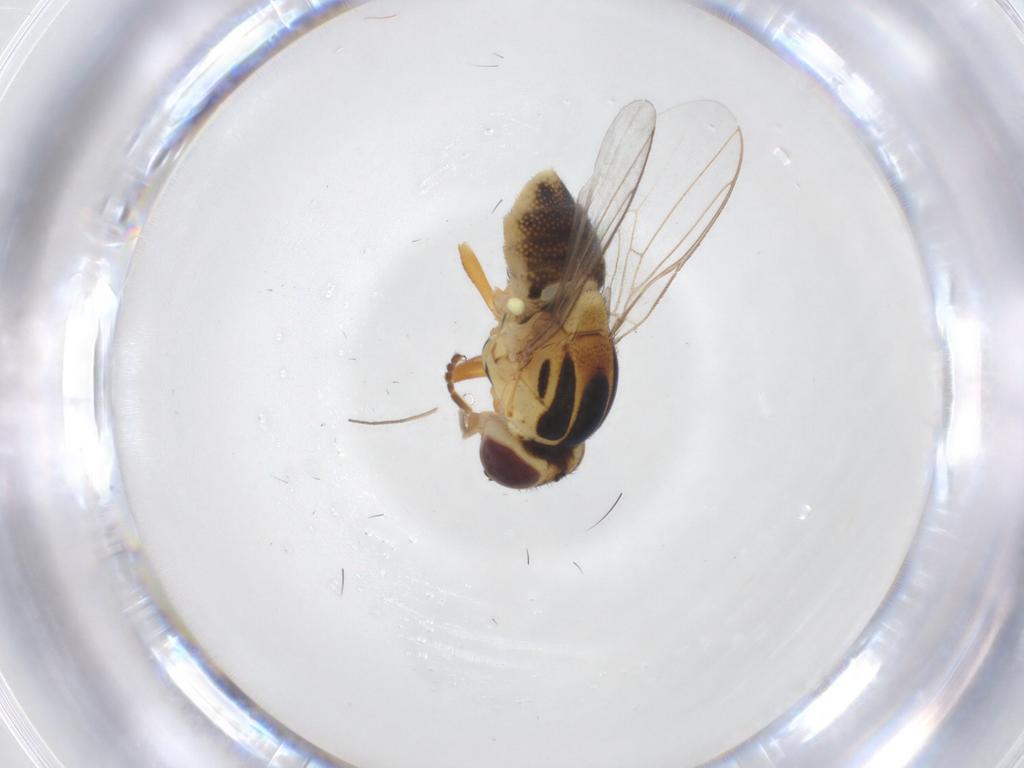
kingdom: Animalia
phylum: Arthropoda
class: Insecta
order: Diptera
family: Chloropidae
